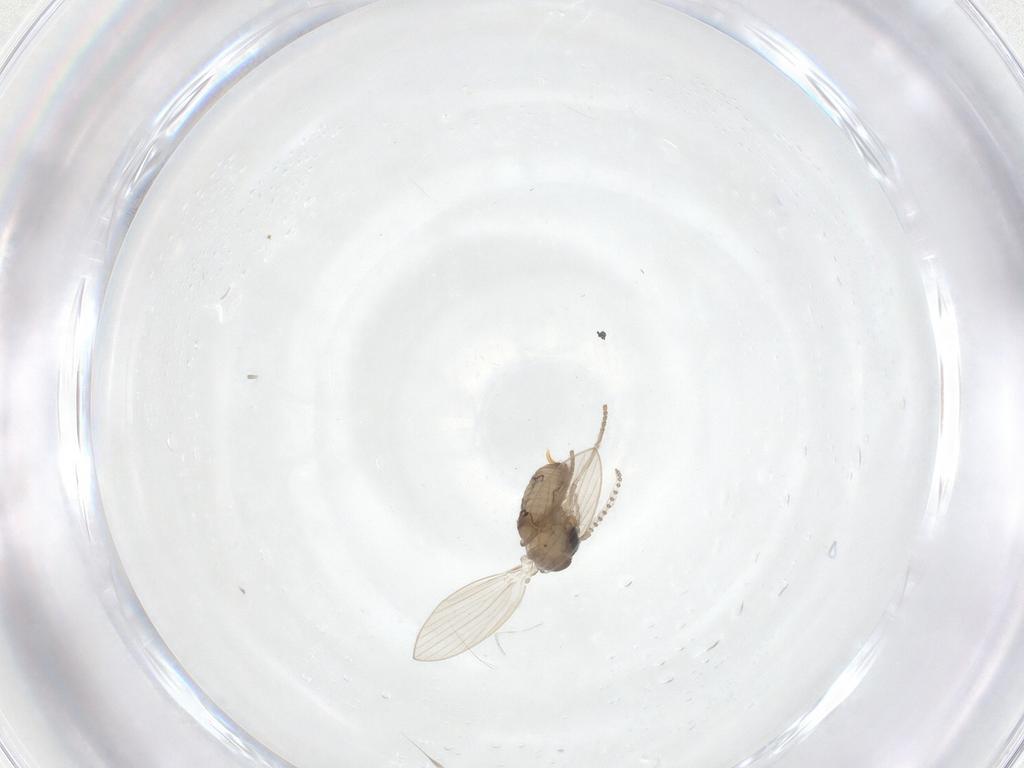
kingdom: Animalia
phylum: Arthropoda
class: Insecta
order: Diptera
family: Psychodidae
